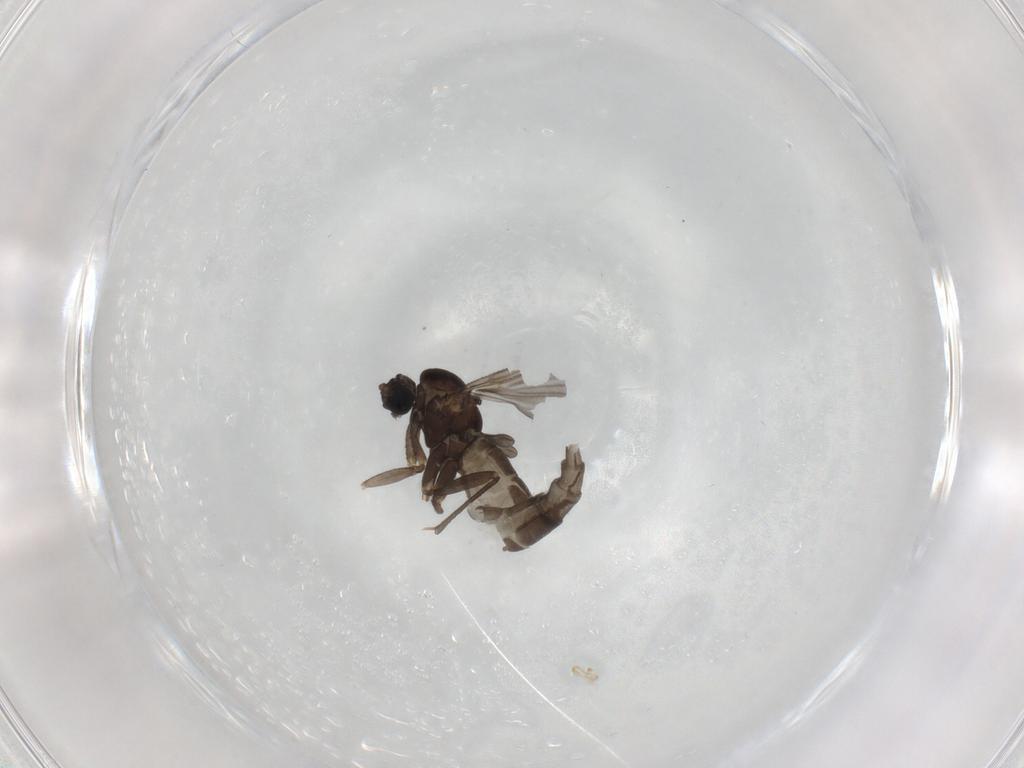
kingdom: Animalia
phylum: Arthropoda
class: Insecta
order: Diptera
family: Sciaridae
